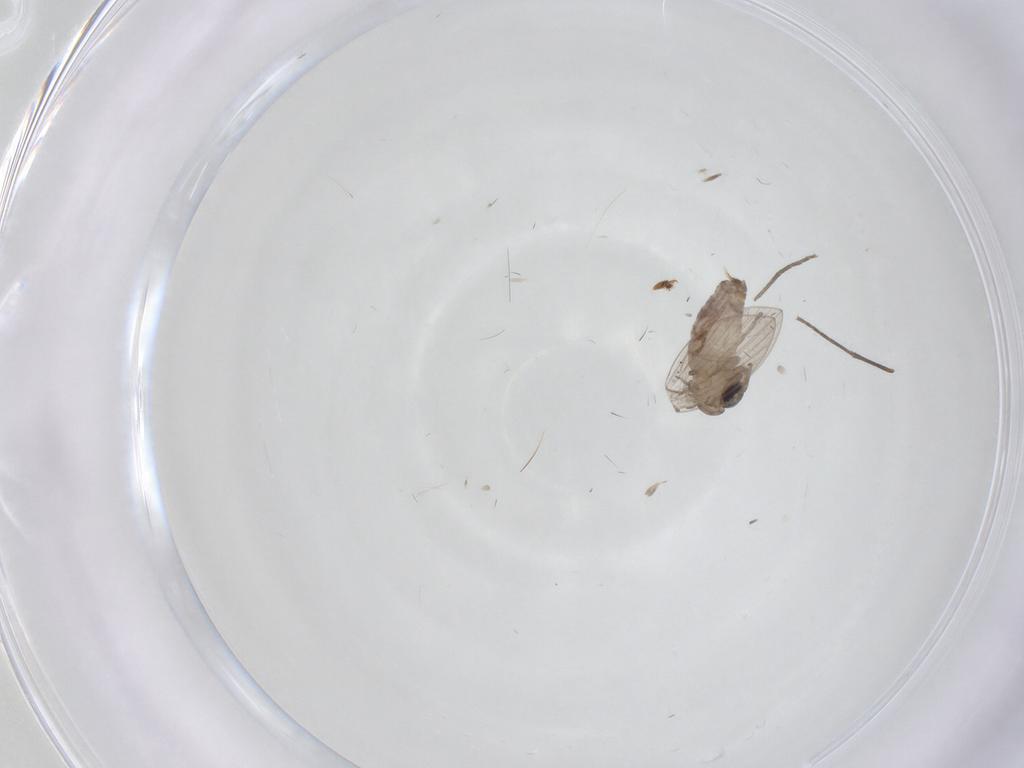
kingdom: Animalia
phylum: Arthropoda
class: Insecta
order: Diptera
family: Psychodidae
